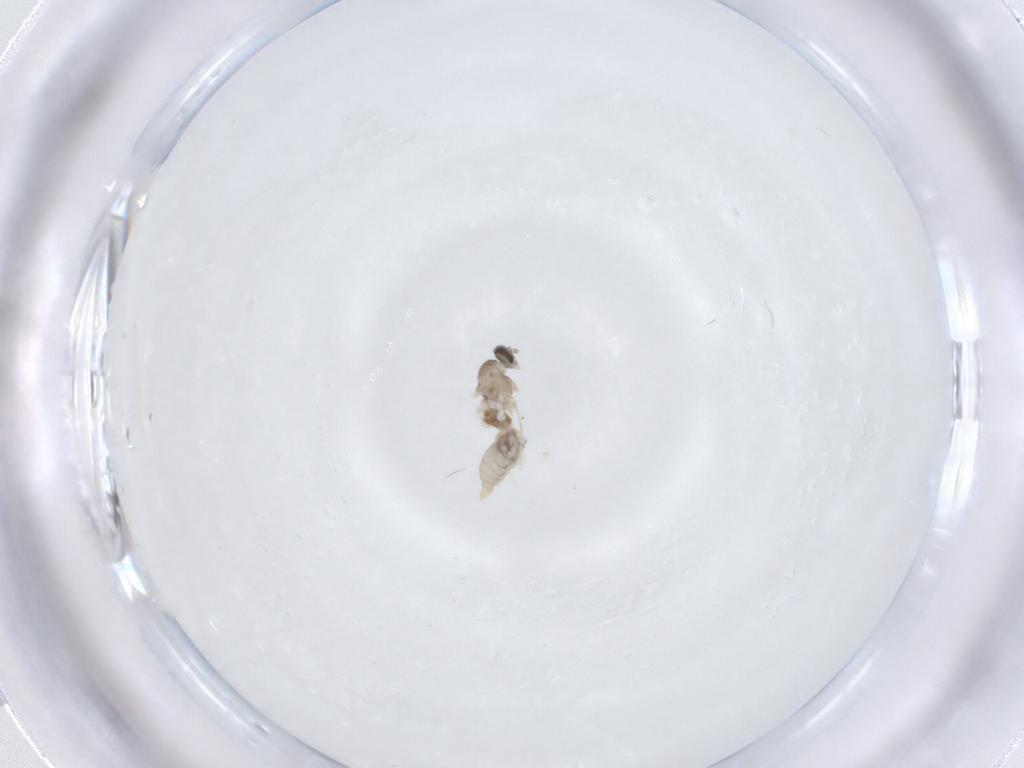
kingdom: Animalia
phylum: Arthropoda
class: Insecta
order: Diptera
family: Cecidomyiidae
